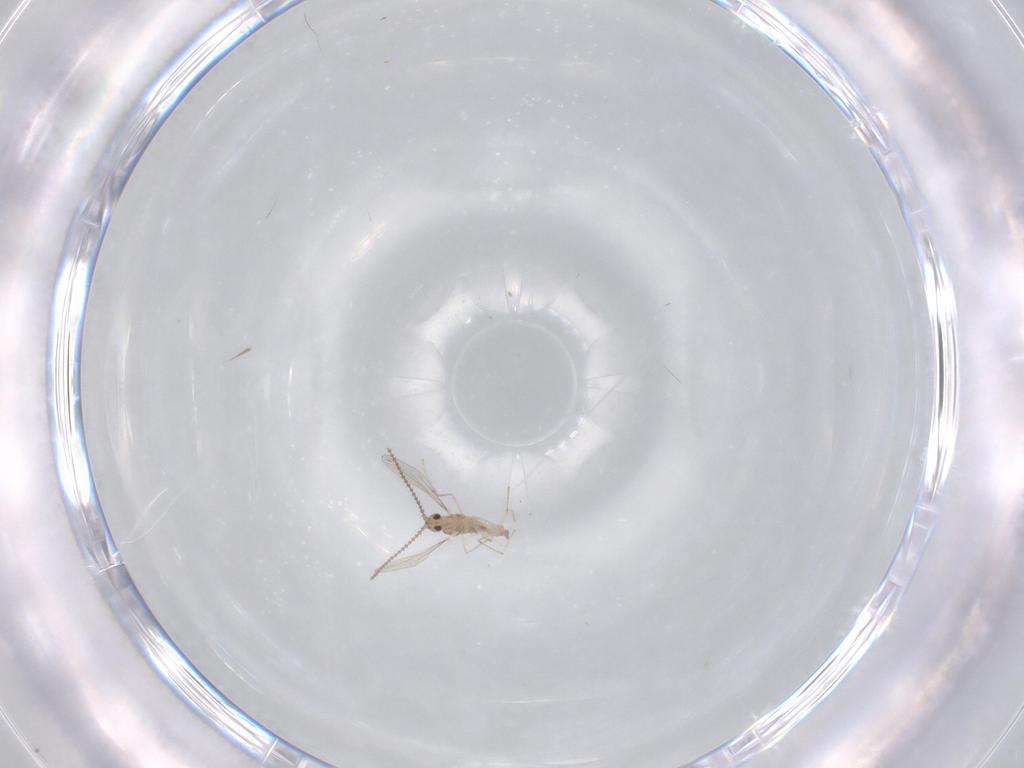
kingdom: Animalia
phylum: Arthropoda
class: Insecta
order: Diptera
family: Cecidomyiidae
